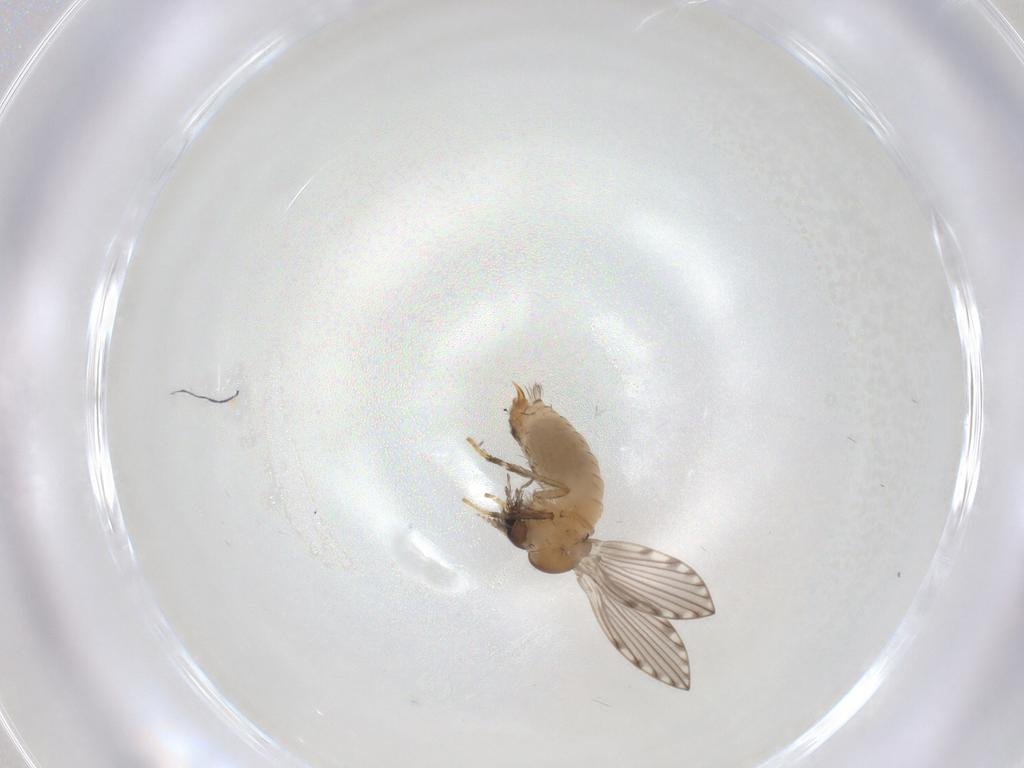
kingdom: Animalia
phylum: Arthropoda
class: Insecta
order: Diptera
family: Psychodidae
